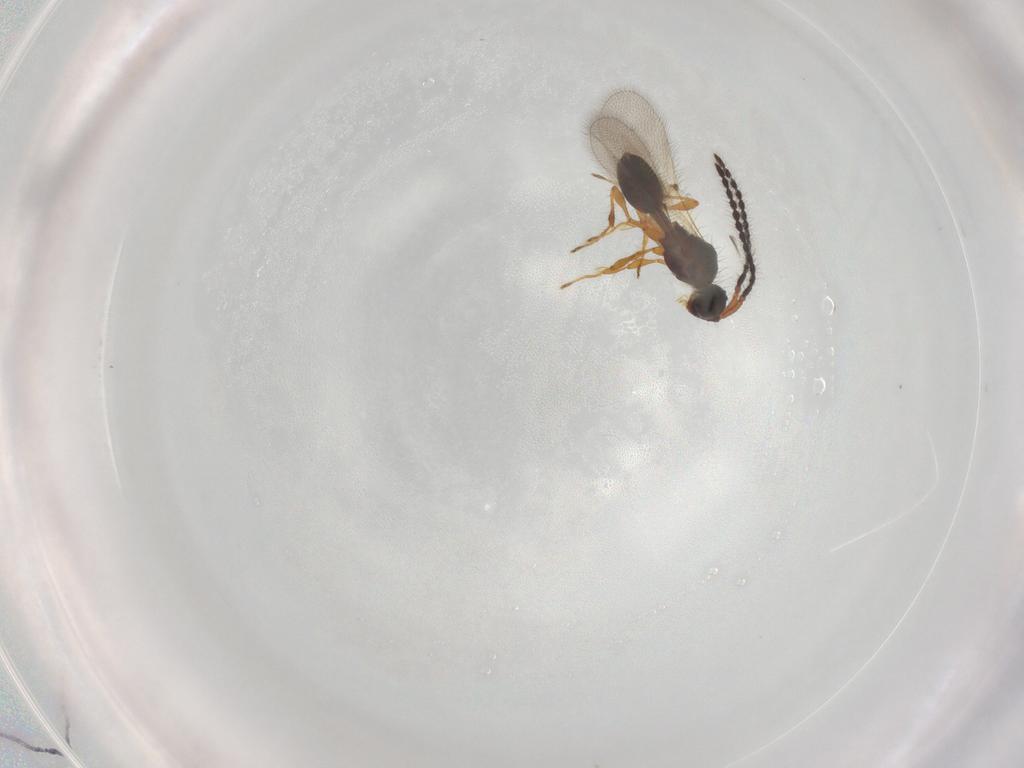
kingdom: Animalia
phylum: Arthropoda
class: Insecta
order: Hymenoptera
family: Diapriidae
